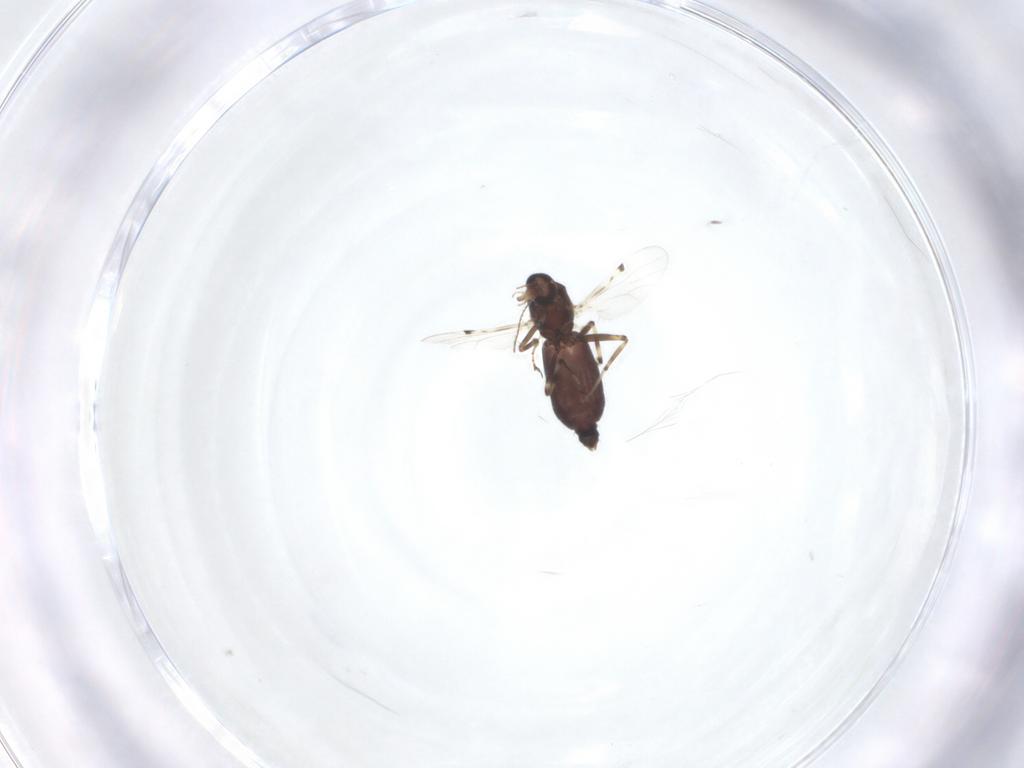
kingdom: Animalia
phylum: Arthropoda
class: Insecta
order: Diptera
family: Ceratopogonidae
